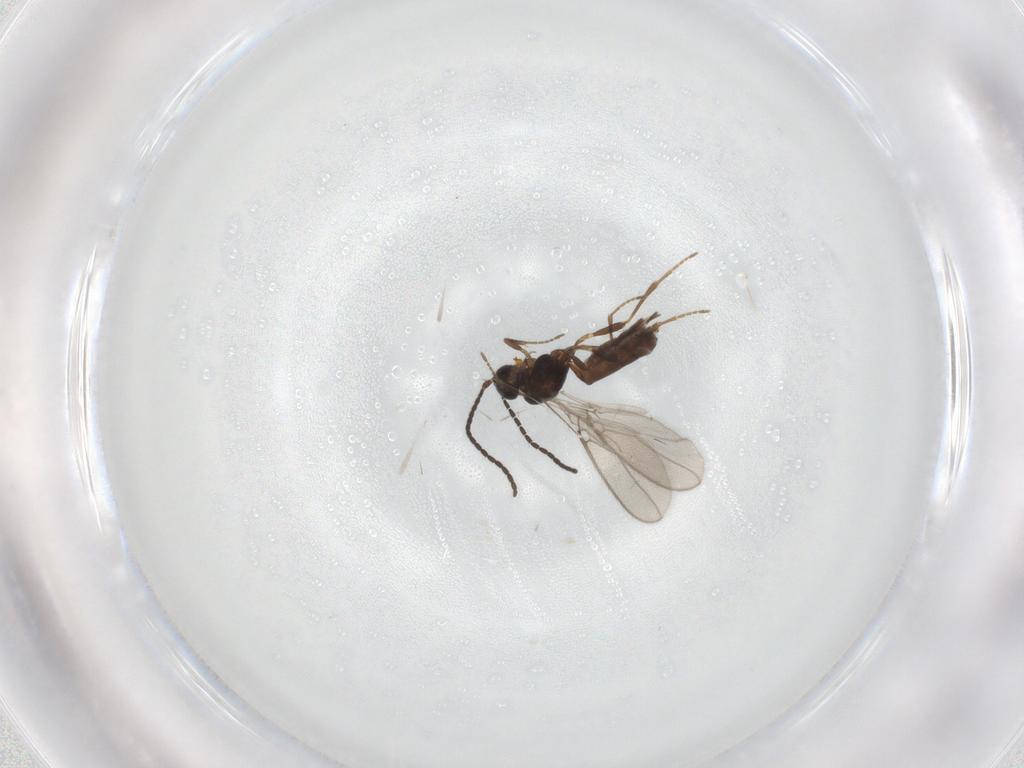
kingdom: Animalia
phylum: Arthropoda
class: Insecta
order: Hymenoptera
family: Braconidae
